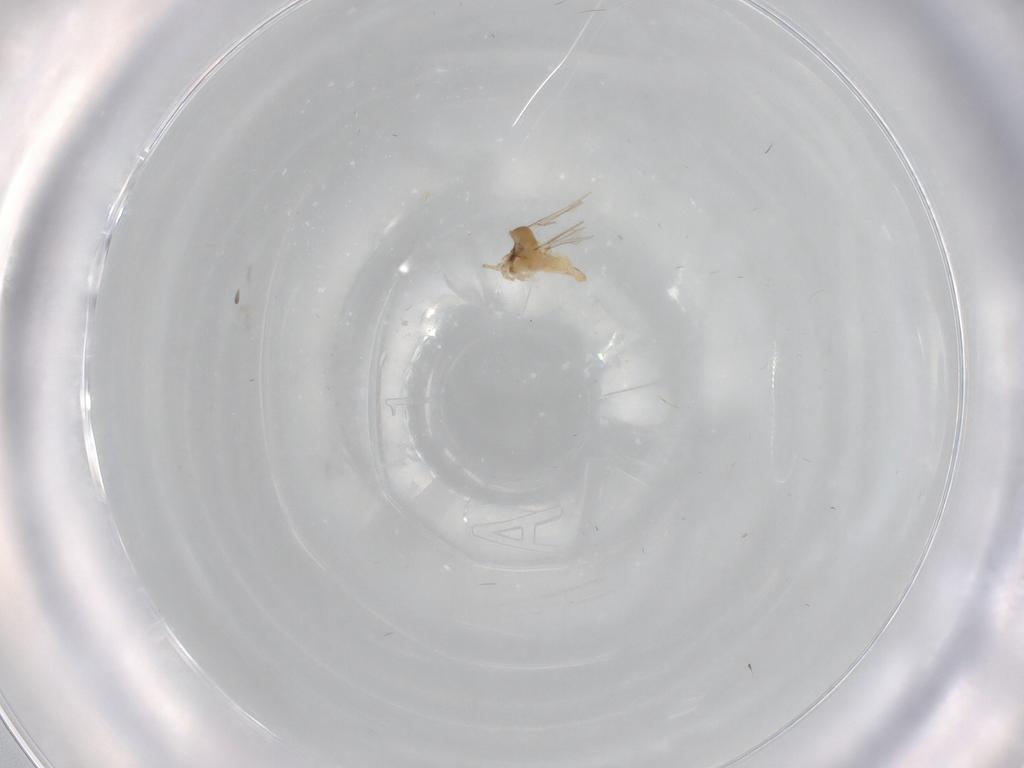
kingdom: Animalia
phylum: Arthropoda
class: Insecta
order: Diptera
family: Cecidomyiidae
